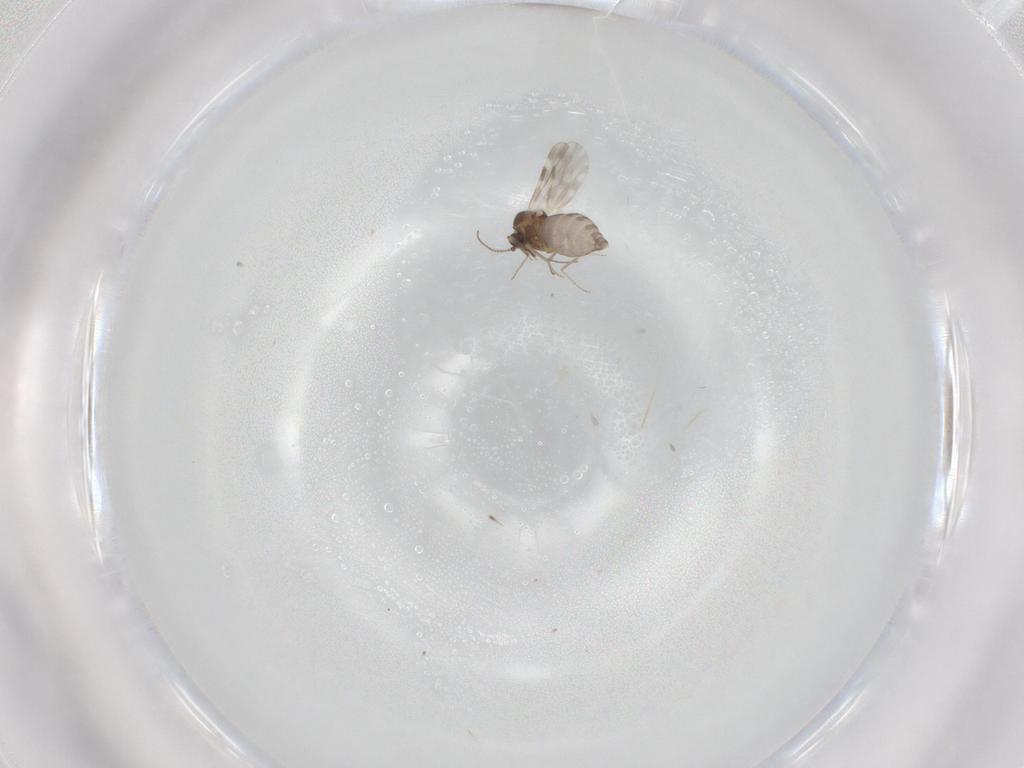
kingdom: Animalia
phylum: Arthropoda
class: Insecta
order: Diptera
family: Chironomidae
